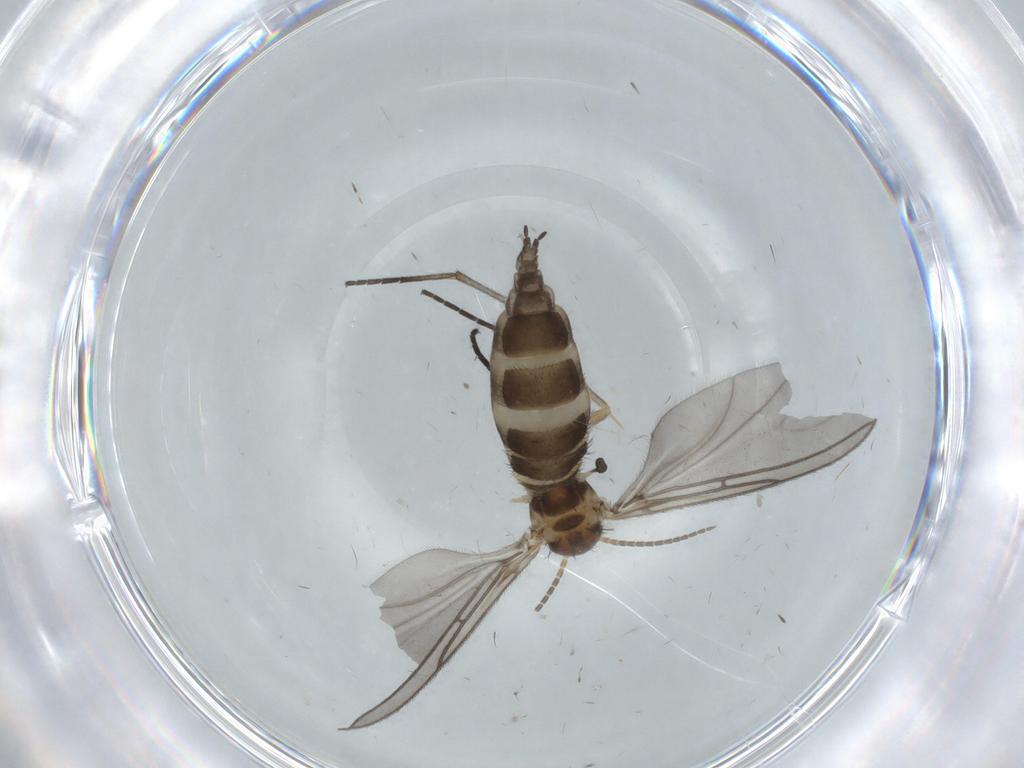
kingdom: Animalia
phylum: Arthropoda
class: Insecta
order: Diptera
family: Sciaridae
